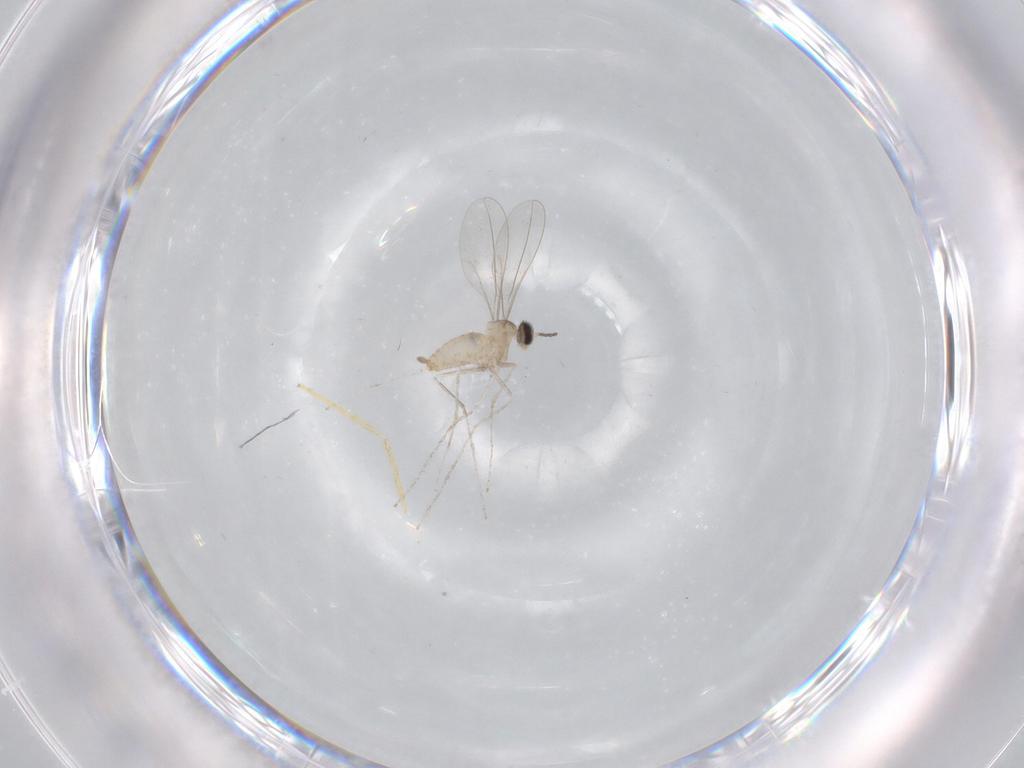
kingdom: Animalia
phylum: Arthropoda
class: Insecta
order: Diptera
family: Cecidomyiidae
